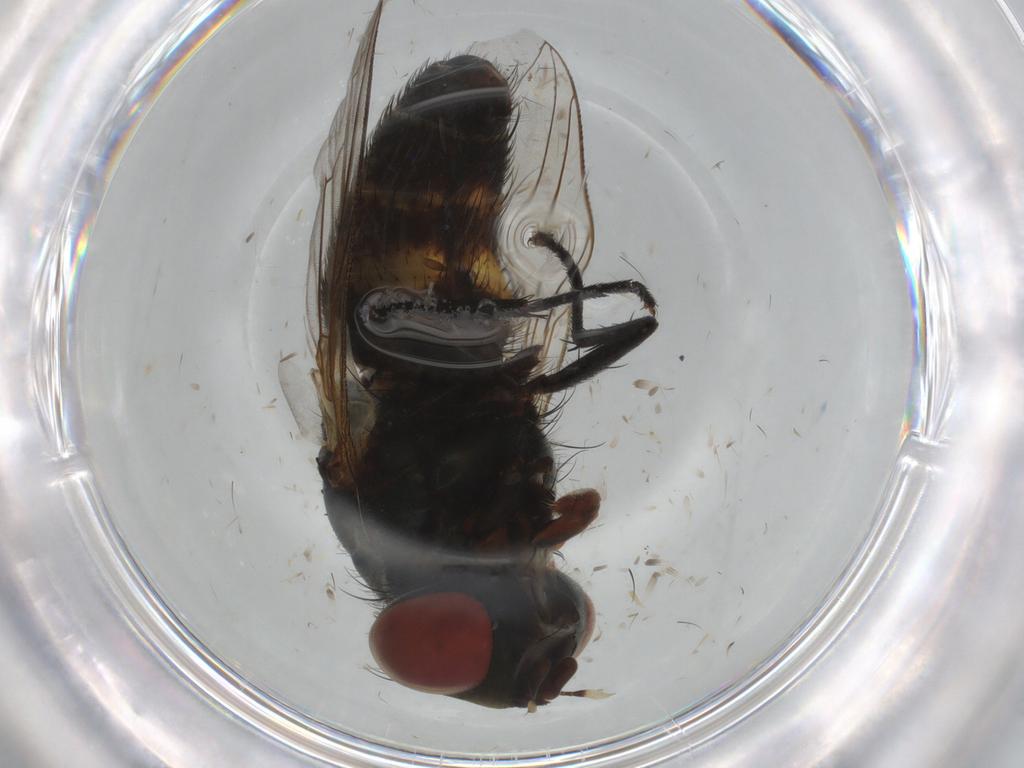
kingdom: Animalia
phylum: Arthropoda
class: Insecta
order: Diptera
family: Sarcophagidae
